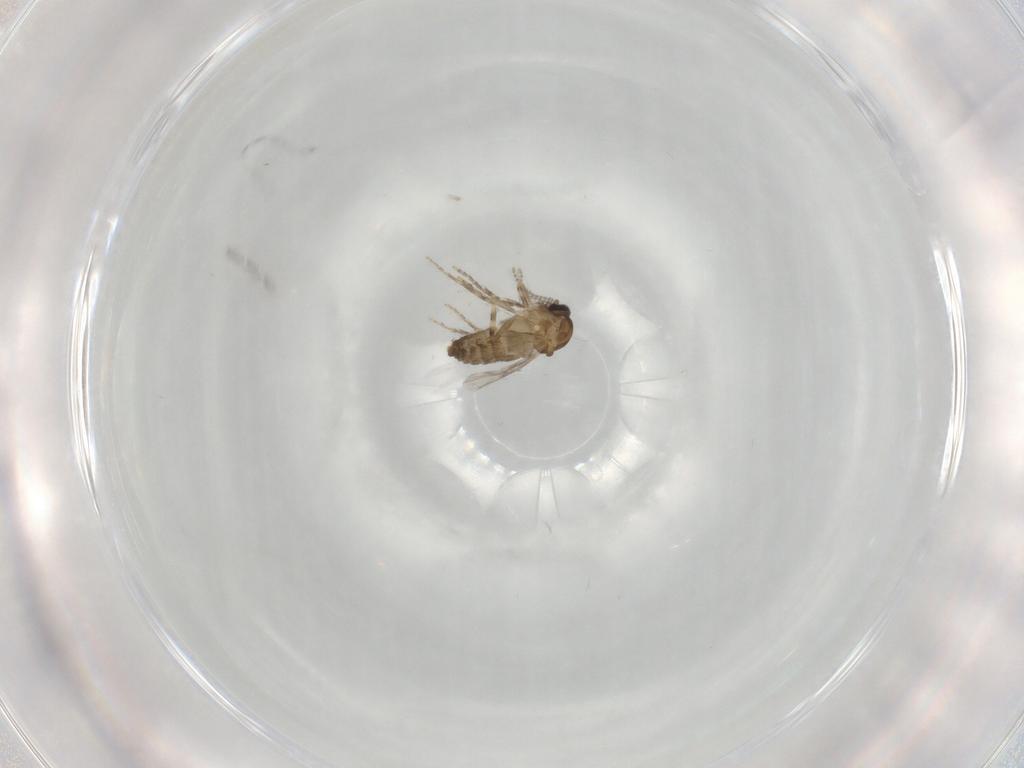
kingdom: Animalia
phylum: Arthropoda
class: Insecta
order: Diptera
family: Ceratopogonidae
